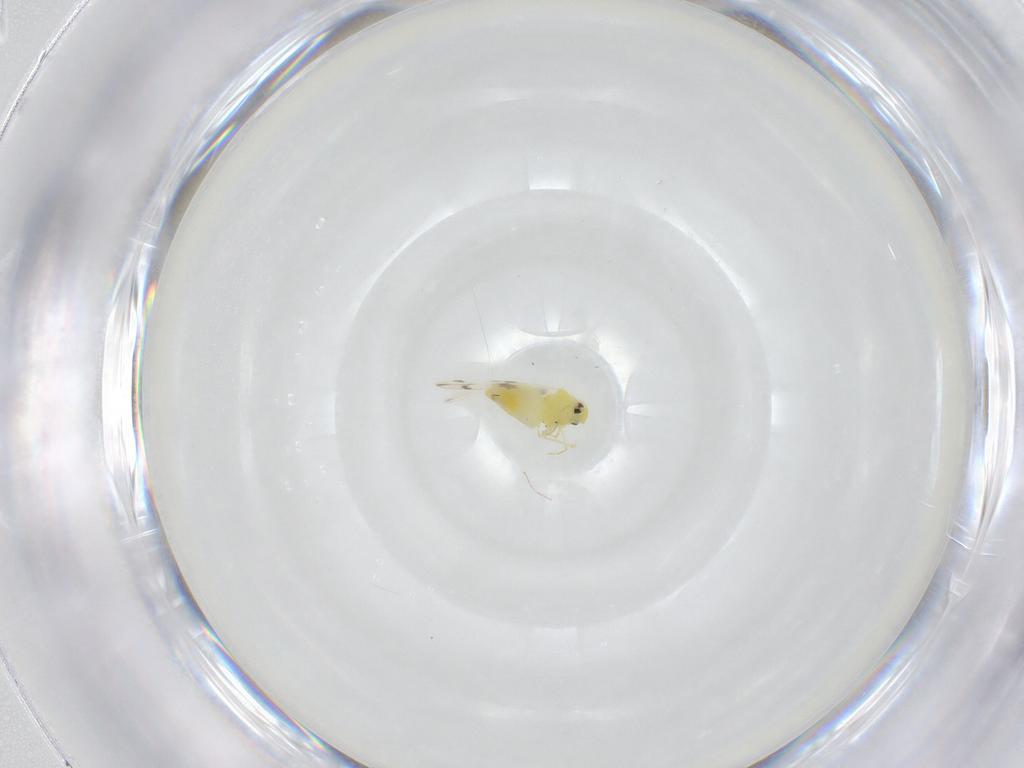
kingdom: Animalia
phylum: Arthropoda
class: Insecta
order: Hemiptera
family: Aleyrodidae
